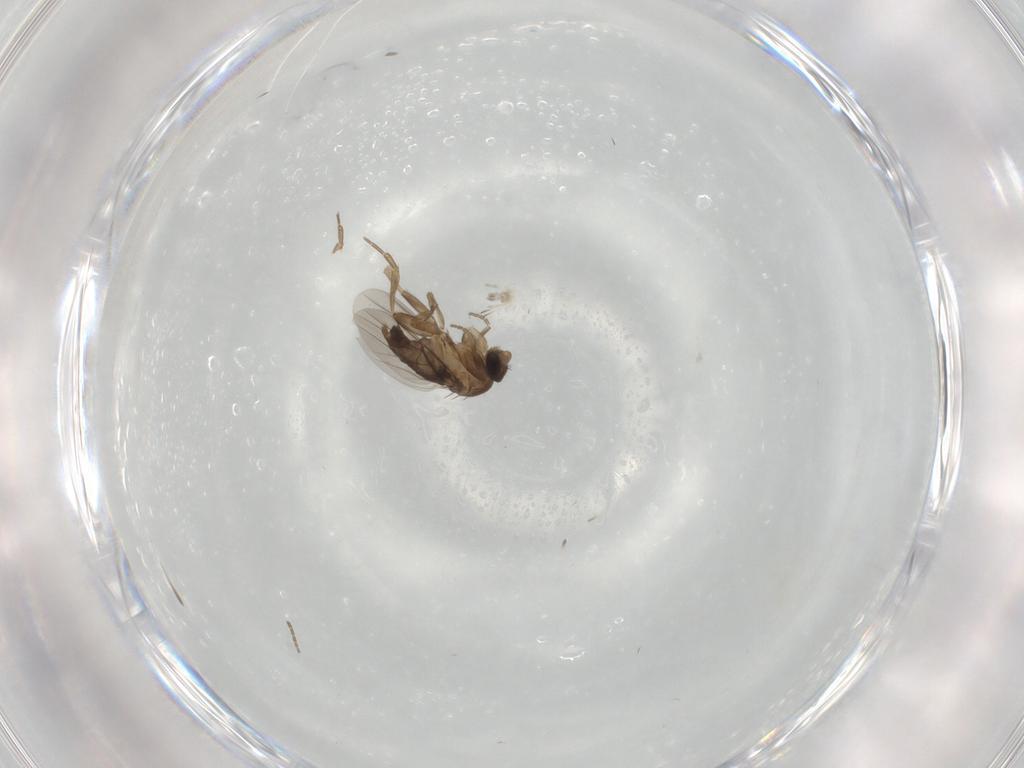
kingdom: Animalia
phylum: Arthropoda
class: Insecta
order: Diptera
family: Phoridae
